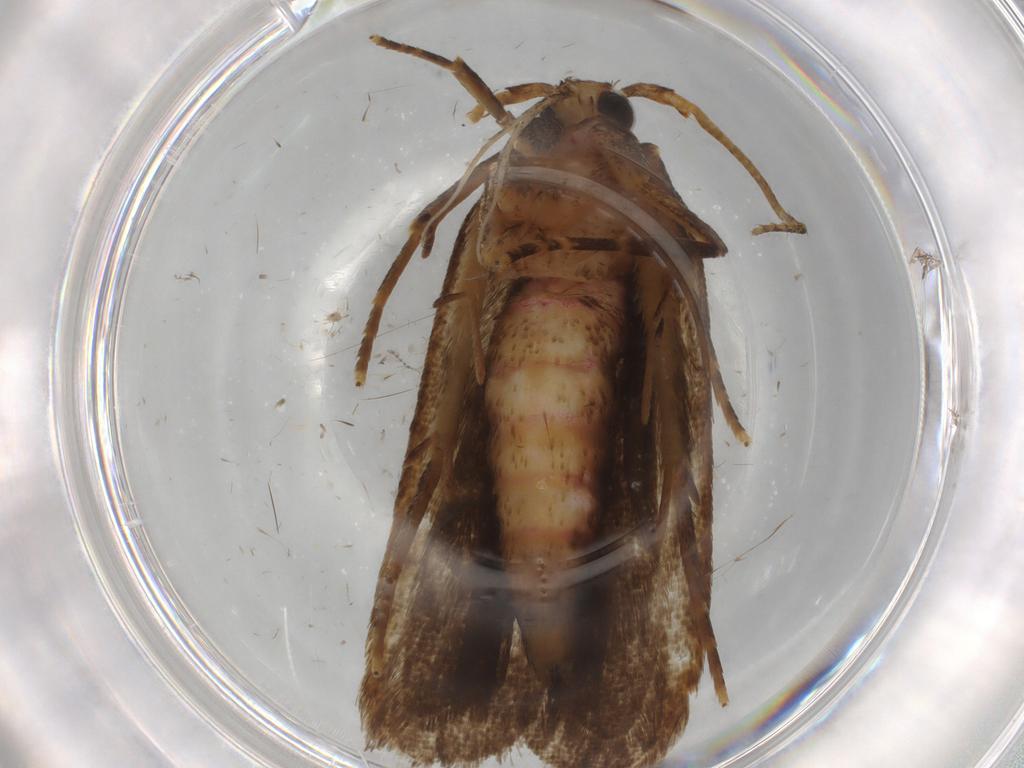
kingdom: Animalia
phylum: Arthropoda
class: Insecta
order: Lepidoptera
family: Autostichidae
